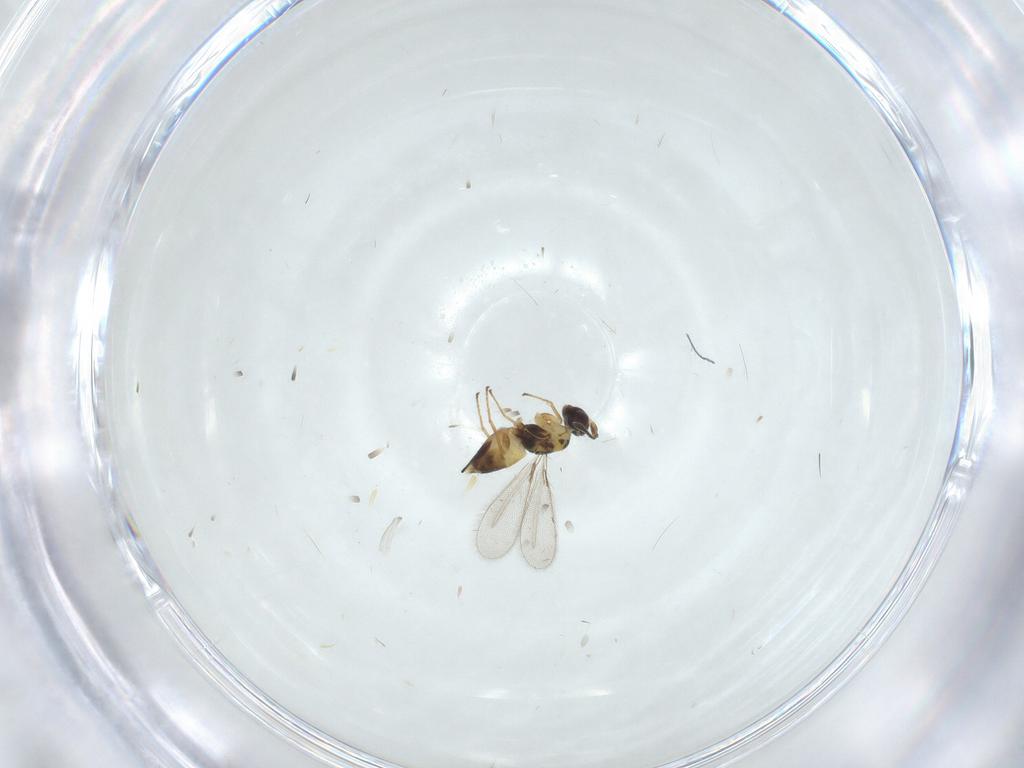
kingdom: Animalia
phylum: Arthropoda
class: Insecta
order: Hymenoptera
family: Mymaridae
